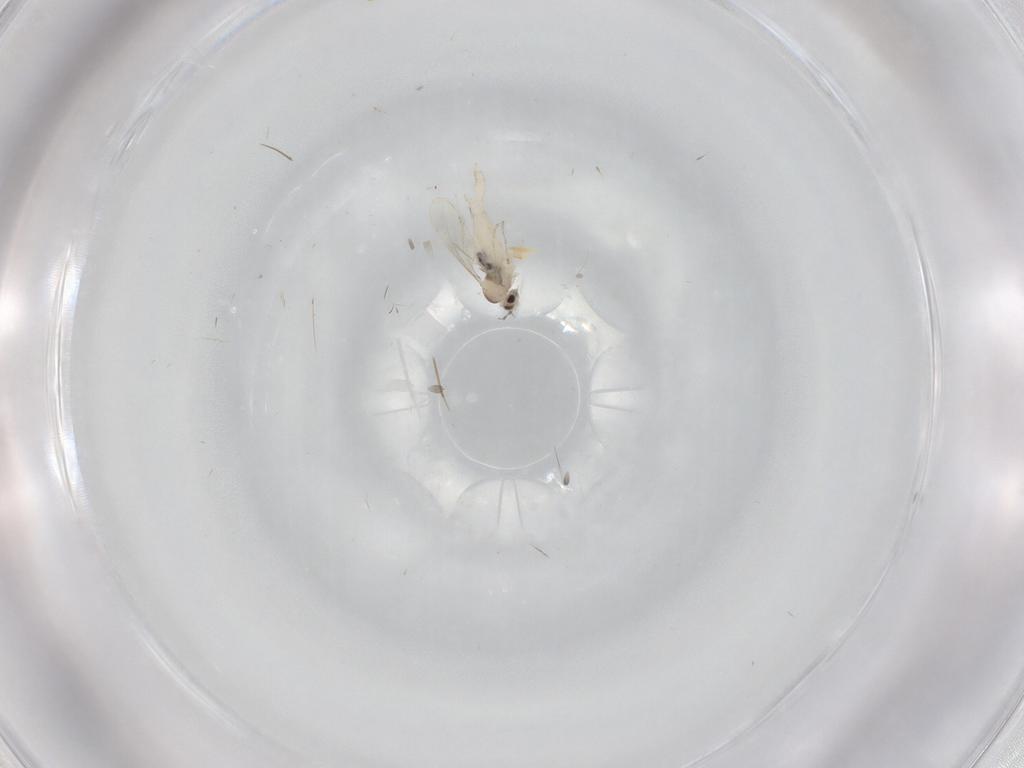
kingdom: Animalia
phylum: Arthropoda
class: Insecta
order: Diptera
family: Cecidomyiidae
